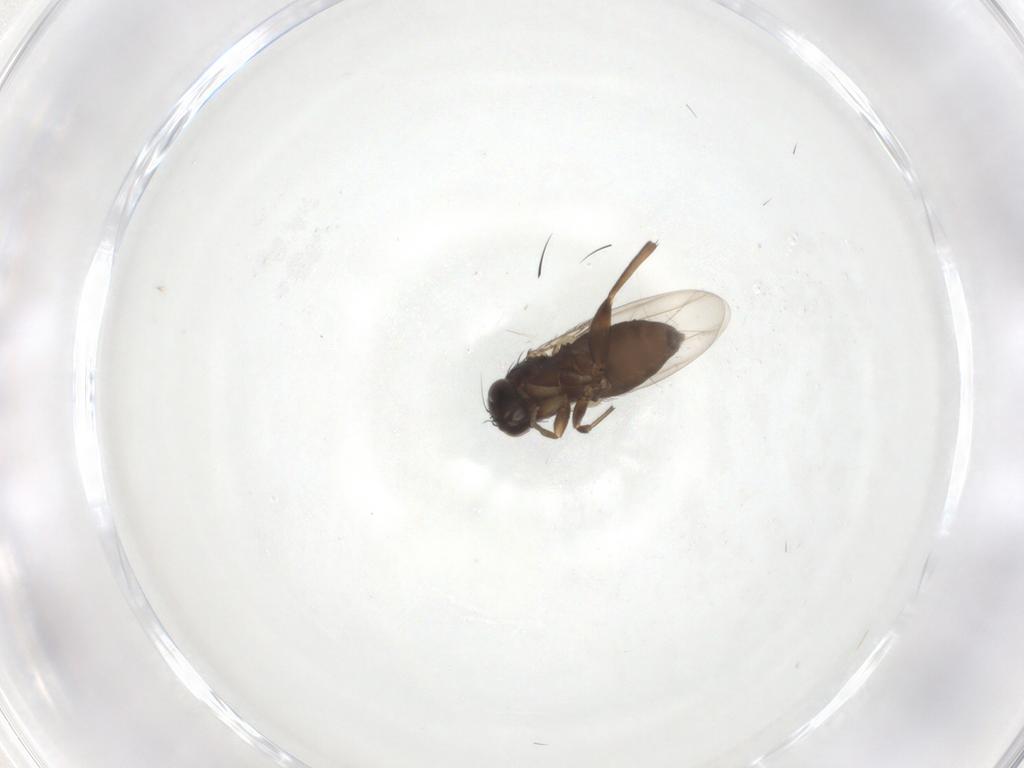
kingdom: Animalia
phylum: Arthropoda
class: Insecta
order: Diptera
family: Phoridae
